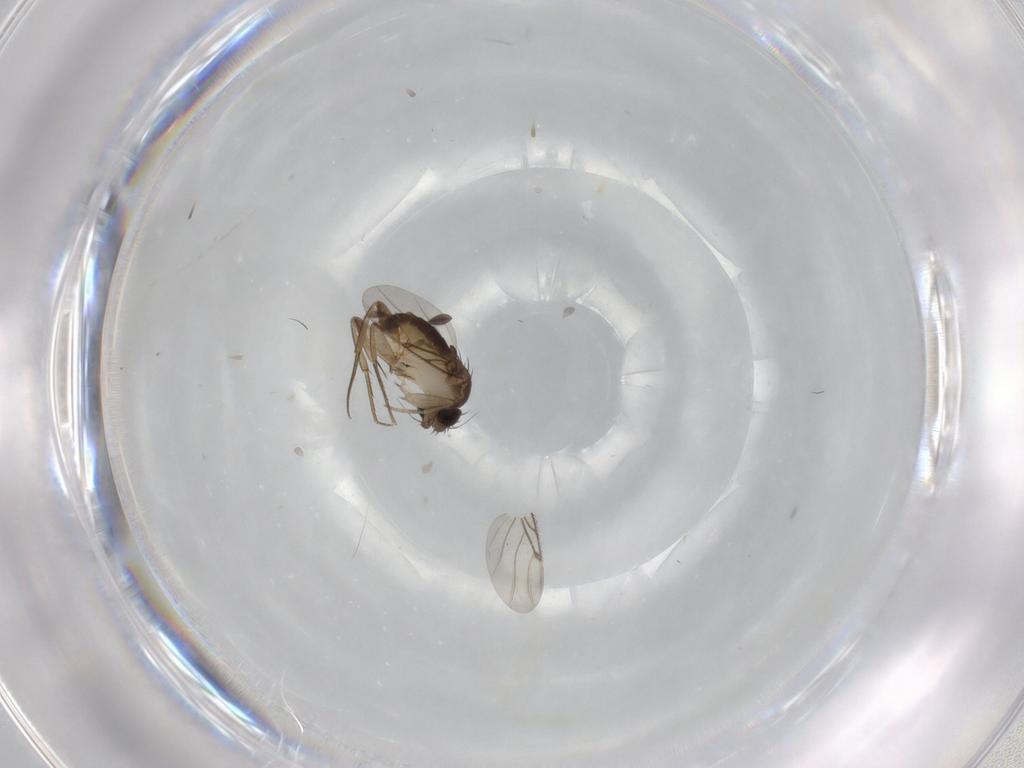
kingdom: Animalia
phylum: Arthropoda
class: Insecta
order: Diptera
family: Phoridae
